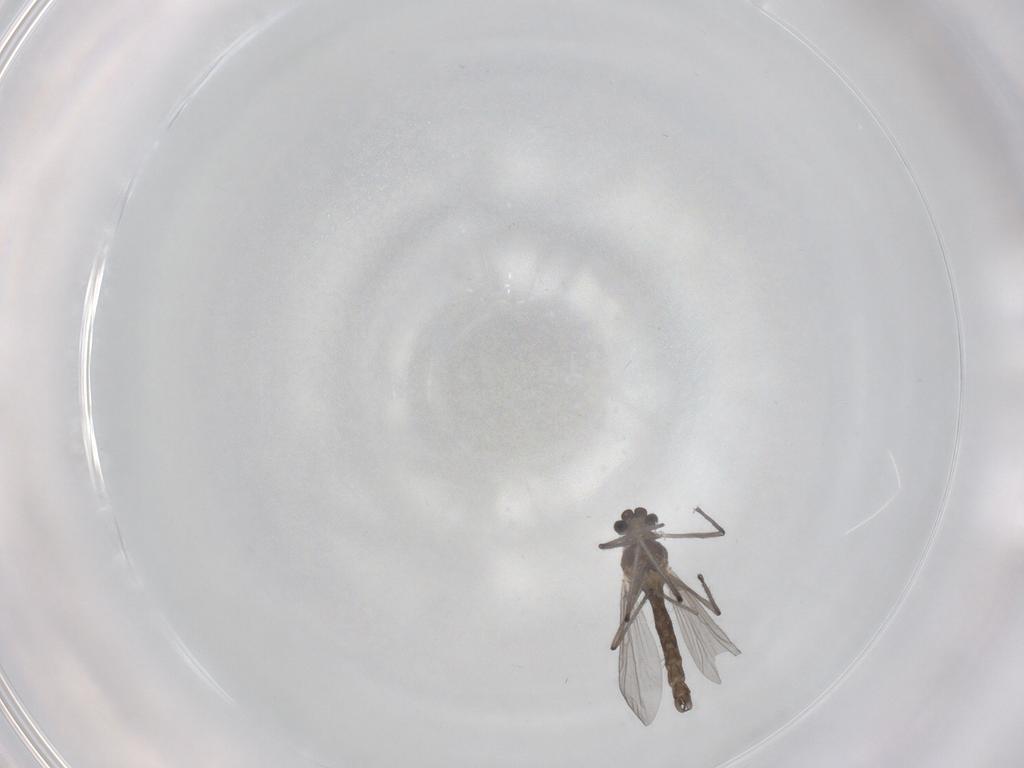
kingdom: Animalia
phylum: Arthropoda
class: Insecta
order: Diptera
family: Chironomidae
